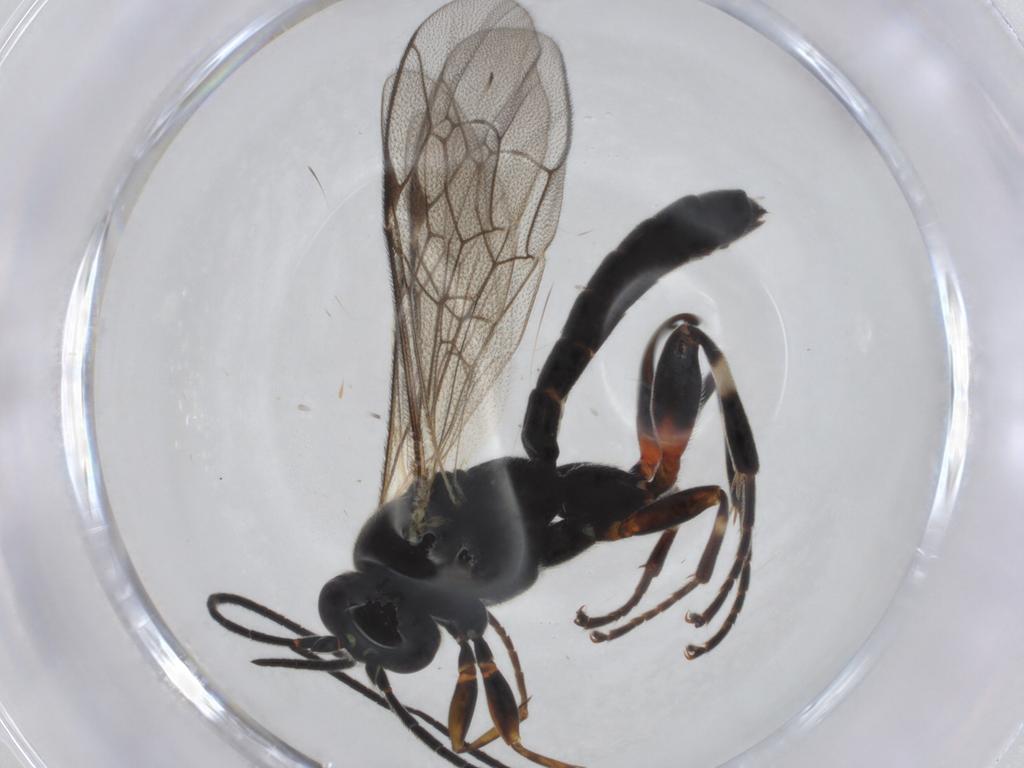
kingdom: Animalia
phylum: Arthropoda
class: Insecta
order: Hymenoptera
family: Ichneumonidae
